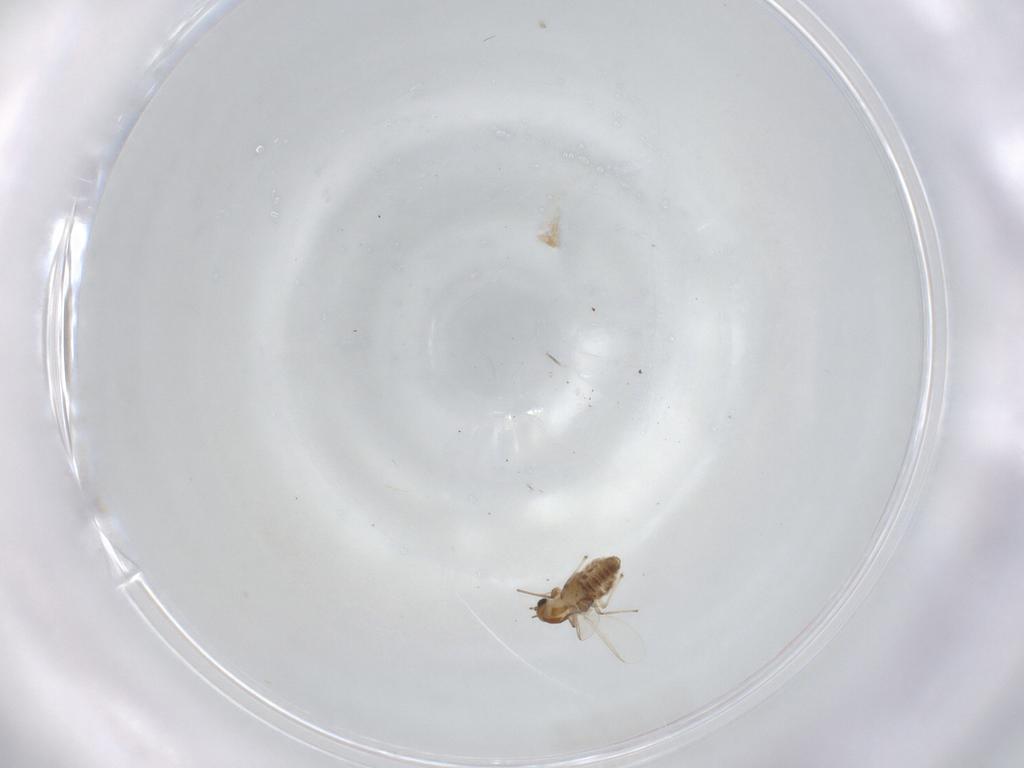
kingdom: Animalia
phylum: Arthropoda
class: Insecta
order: Diptera
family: Chironomidae
